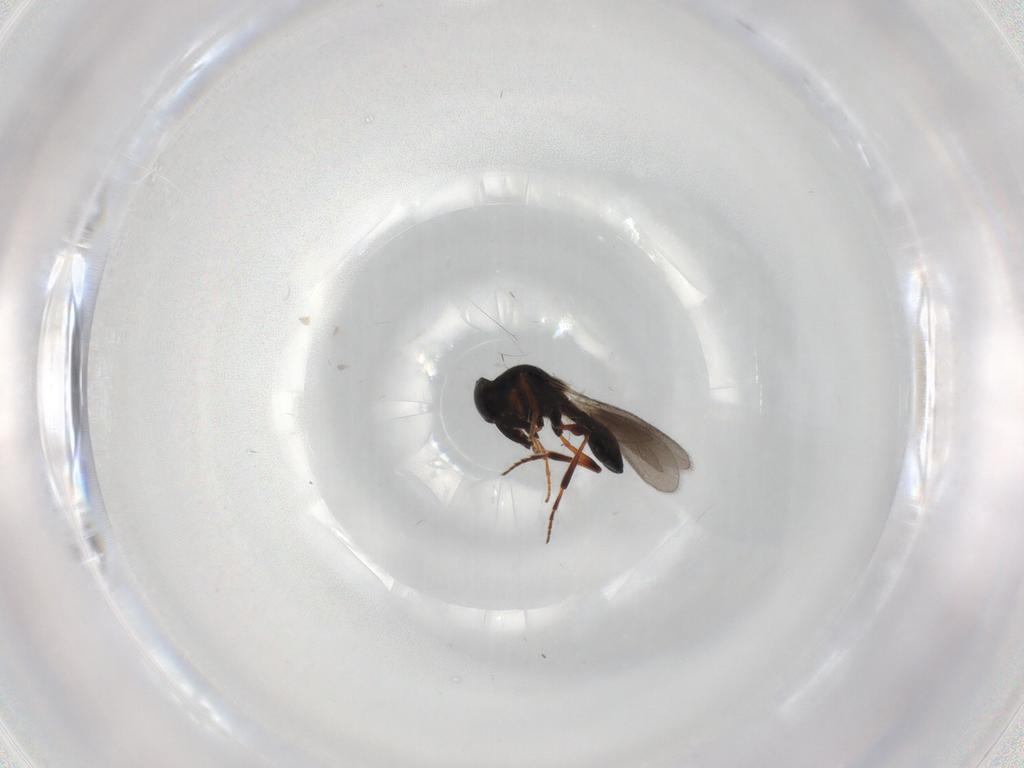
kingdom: Animalia
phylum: Arthropoda
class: Insecta
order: Hymenoptera
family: Platygastridae
